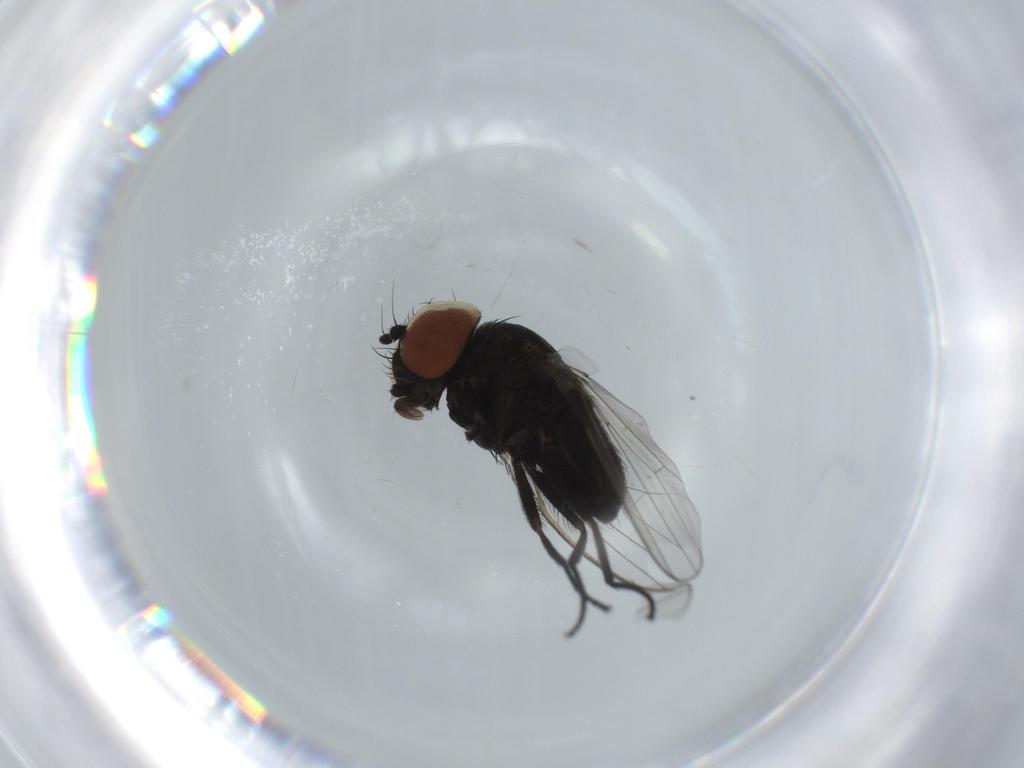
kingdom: Animalia
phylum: Arthropoda
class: Insecta
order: Diptera
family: Milichiidae
